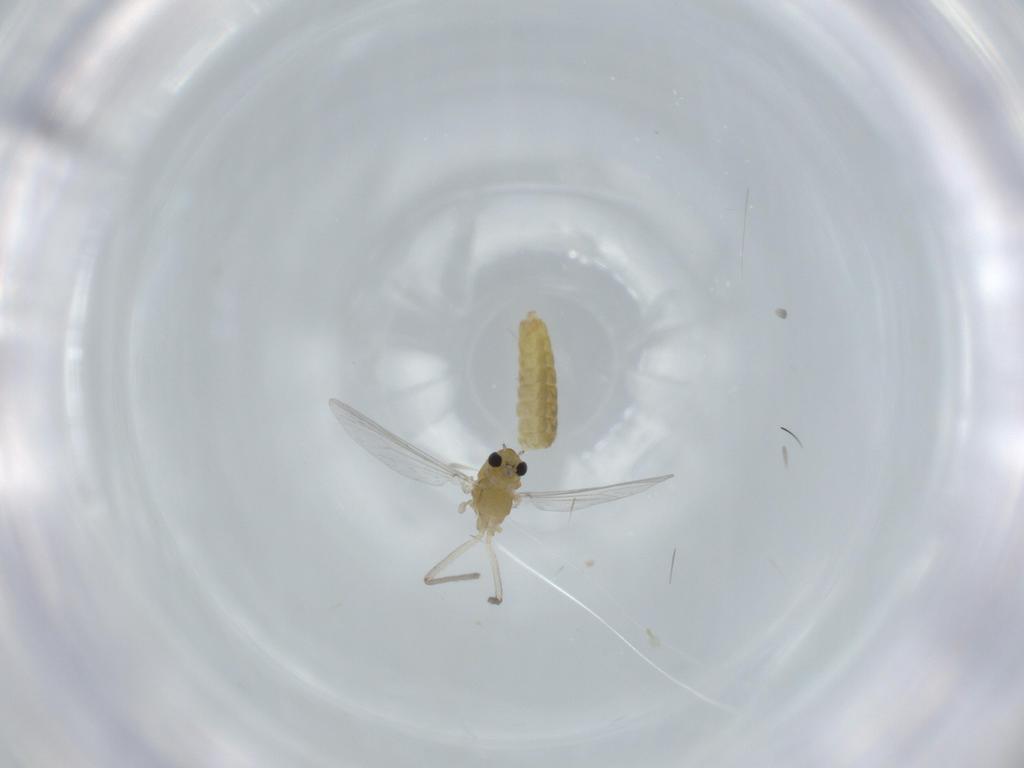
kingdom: Animalia
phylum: Arthropoda
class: Insecta
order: Diptera
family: Chironomidae
